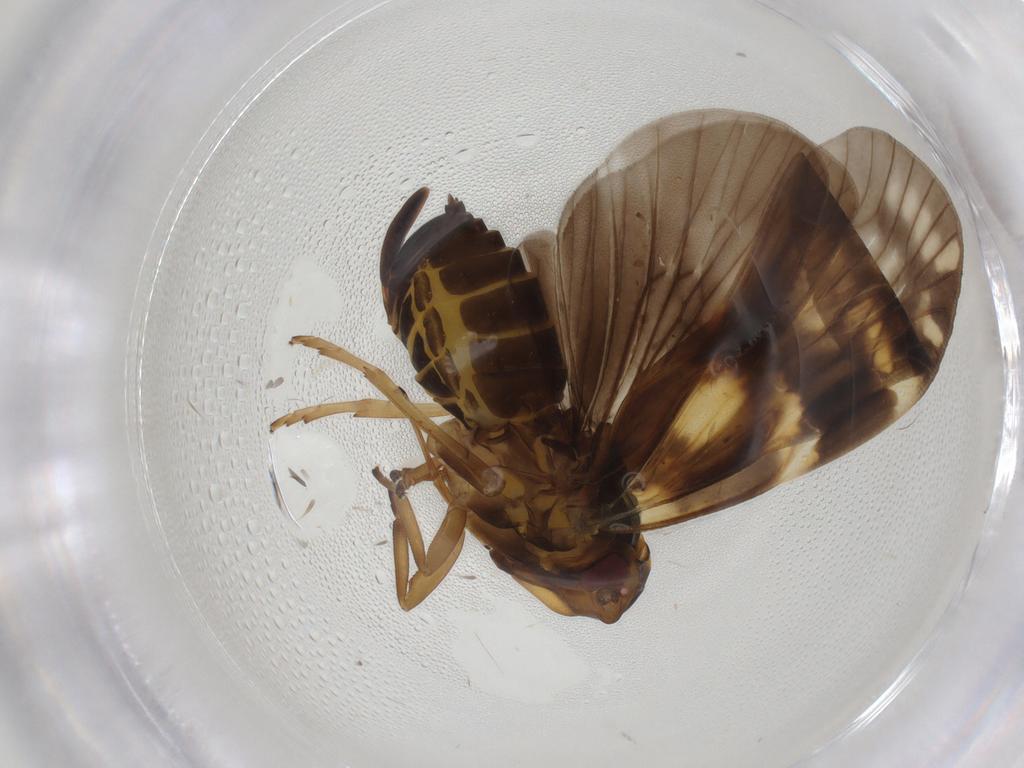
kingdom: Animalia
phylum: Arthropoda
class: Insecta
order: Hemiptera
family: Cixiidae
